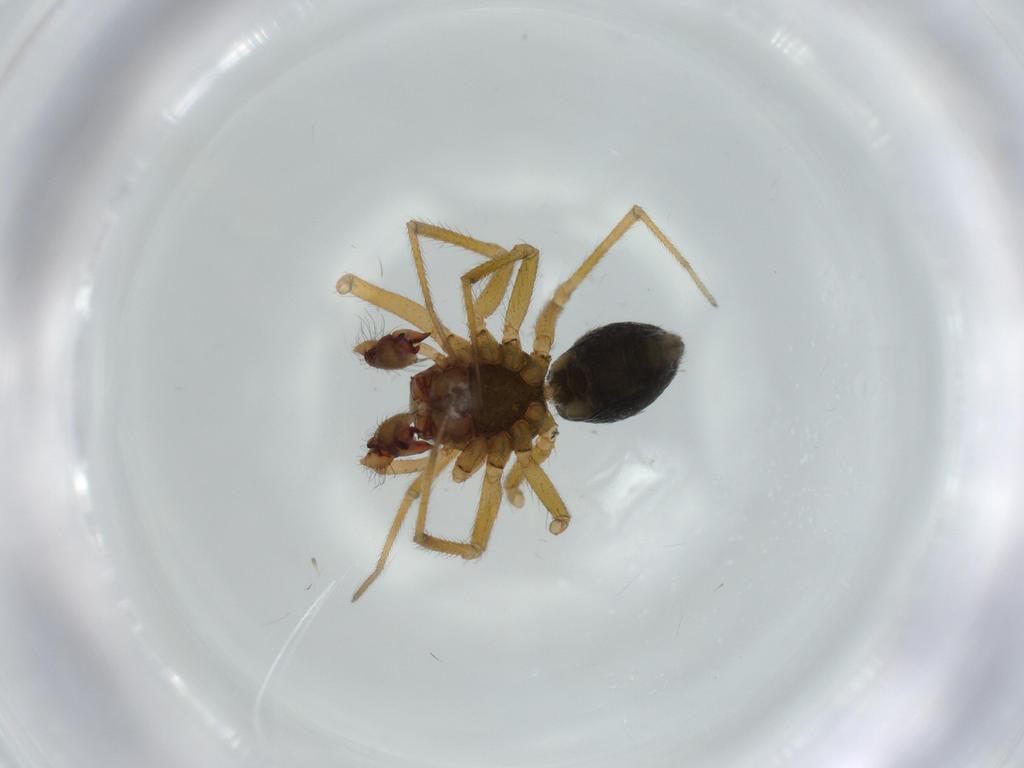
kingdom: Animalia
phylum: Arthropoda
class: Arachnida
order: Araneae
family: Linyphiidae
